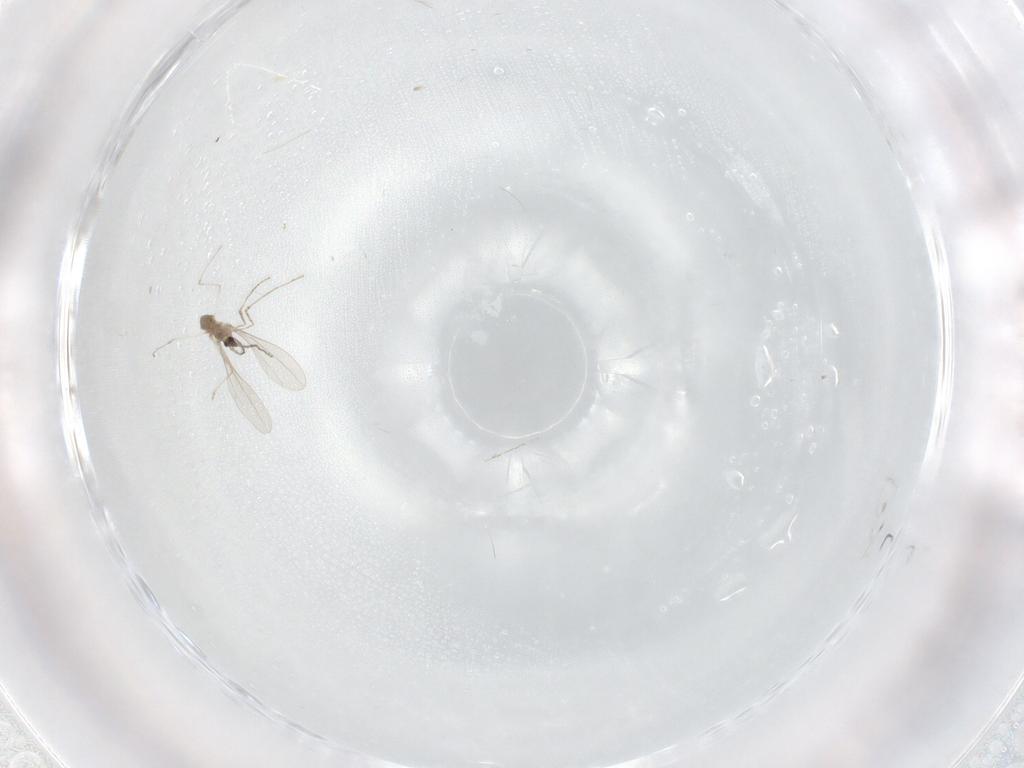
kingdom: Animalia
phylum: Arthropoda
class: Insecta
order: Diptera
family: Cecidomyiidae
